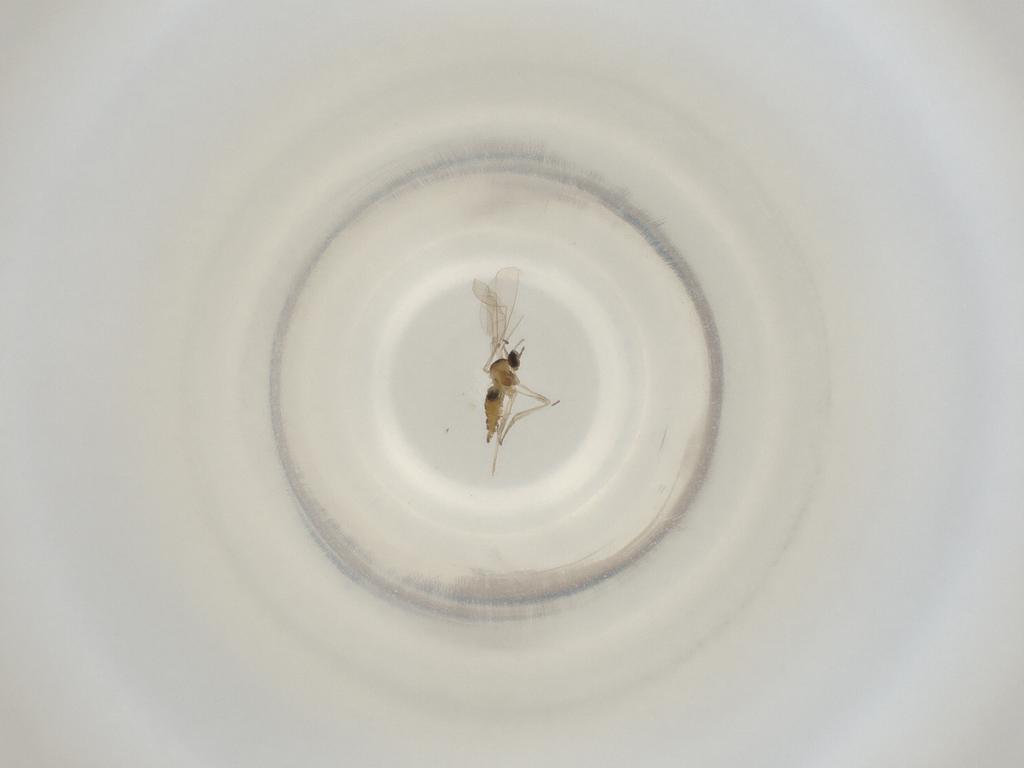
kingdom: Animalia
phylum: Arthropoda
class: Insecta
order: Diptera
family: Cecidomyiidae
